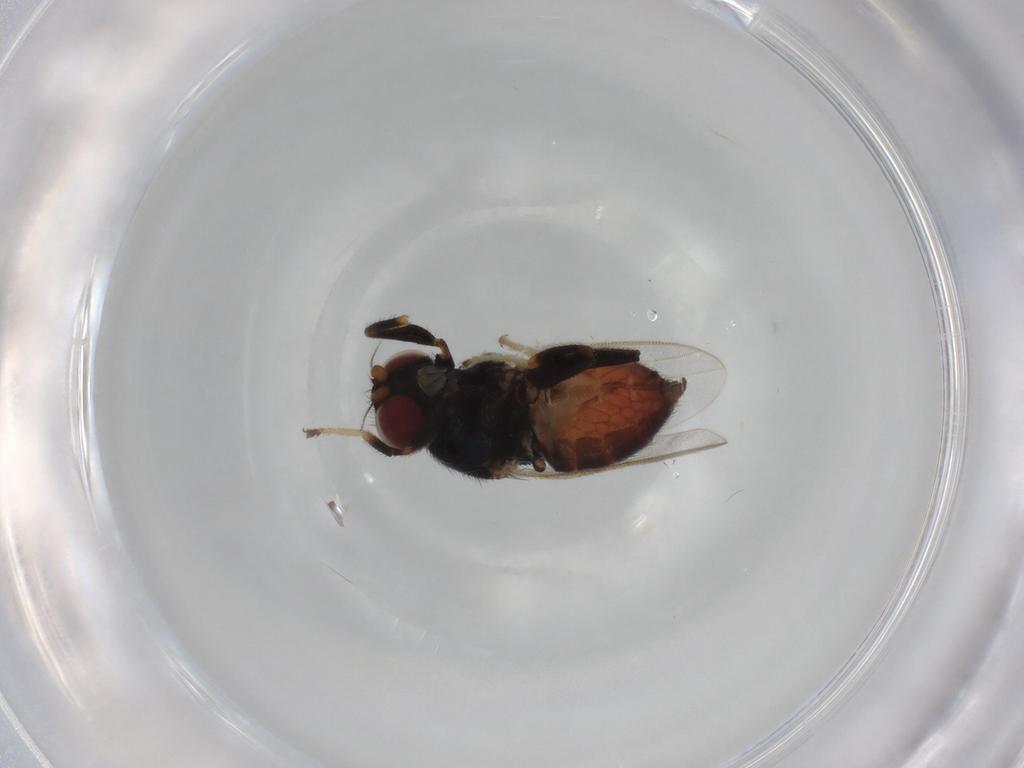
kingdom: Animalia
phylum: Arthropoda
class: Insecta
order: Diptera
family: Chloropidae
